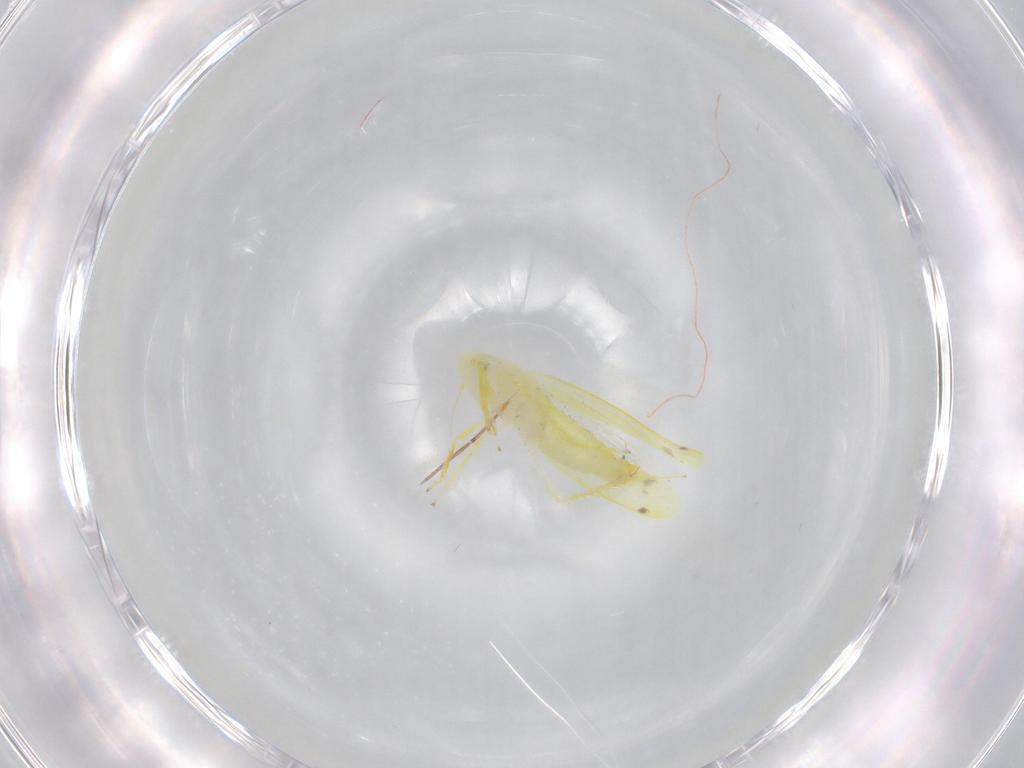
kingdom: Animalia
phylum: Arthropoda
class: Insecta
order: Hemiptera
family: Cicadellidae
